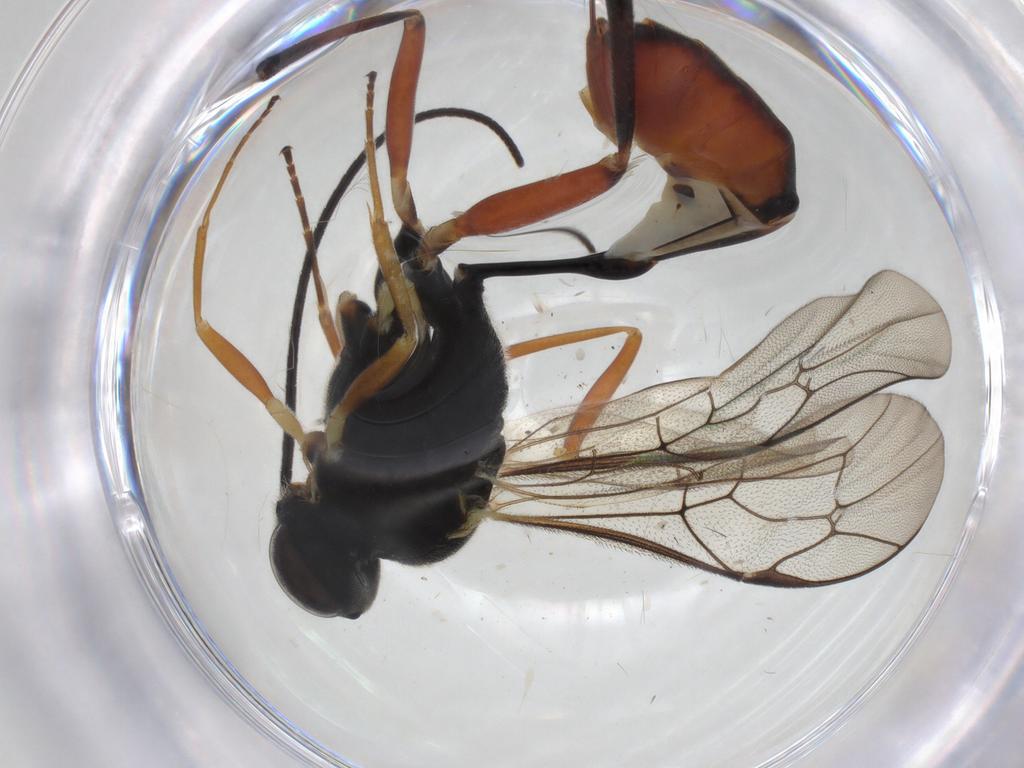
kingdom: Animalia
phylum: Arthropoda
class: Insecta
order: Hymenoptera
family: Ichneumonidae
